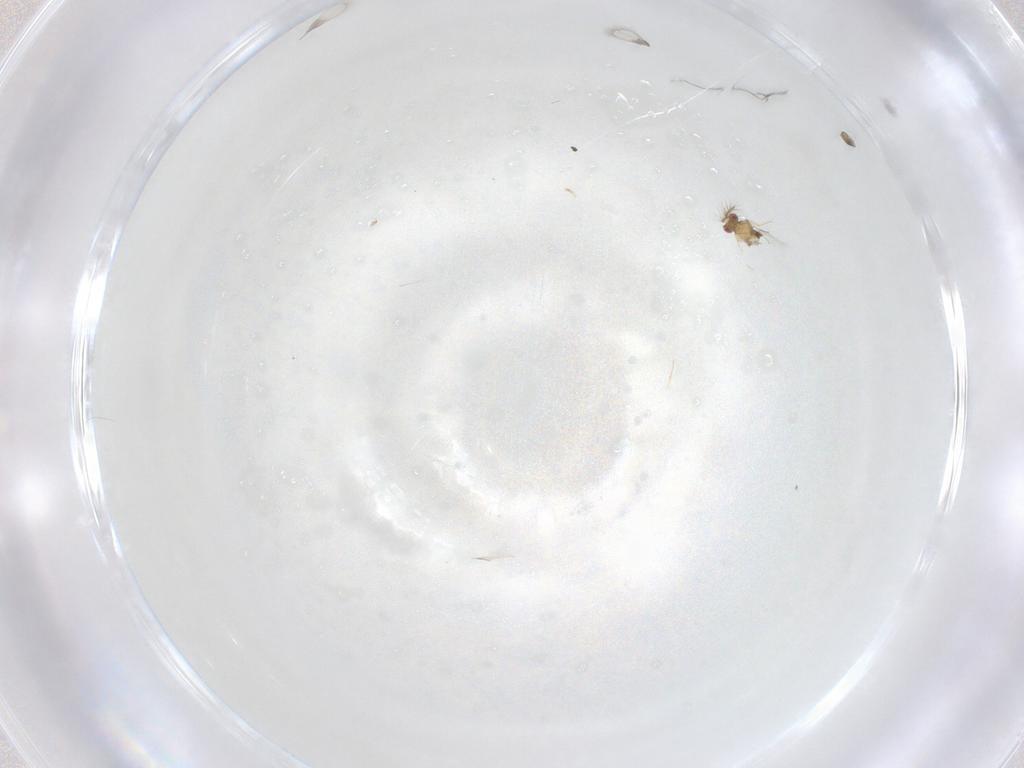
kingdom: Animalia
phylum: Arthropoda
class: Insecta
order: Hymenoptera
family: Trichogrammatidae
